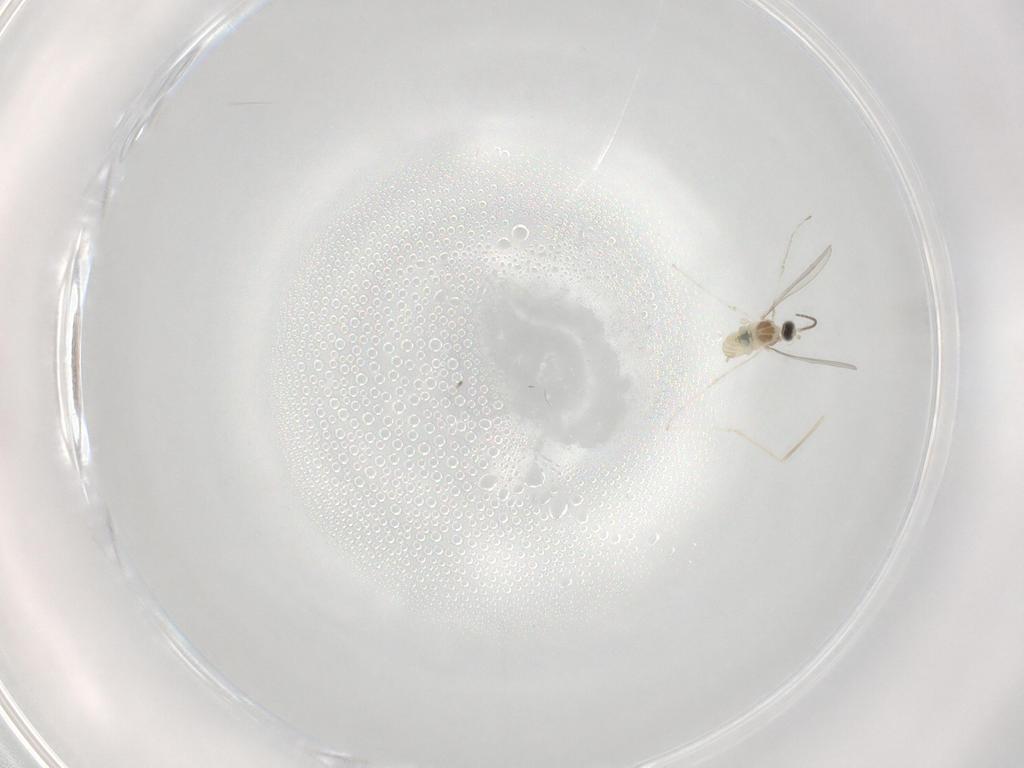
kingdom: Animalia
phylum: Arthropoda
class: Insecta
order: Diptera
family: Cecidomyiidae
